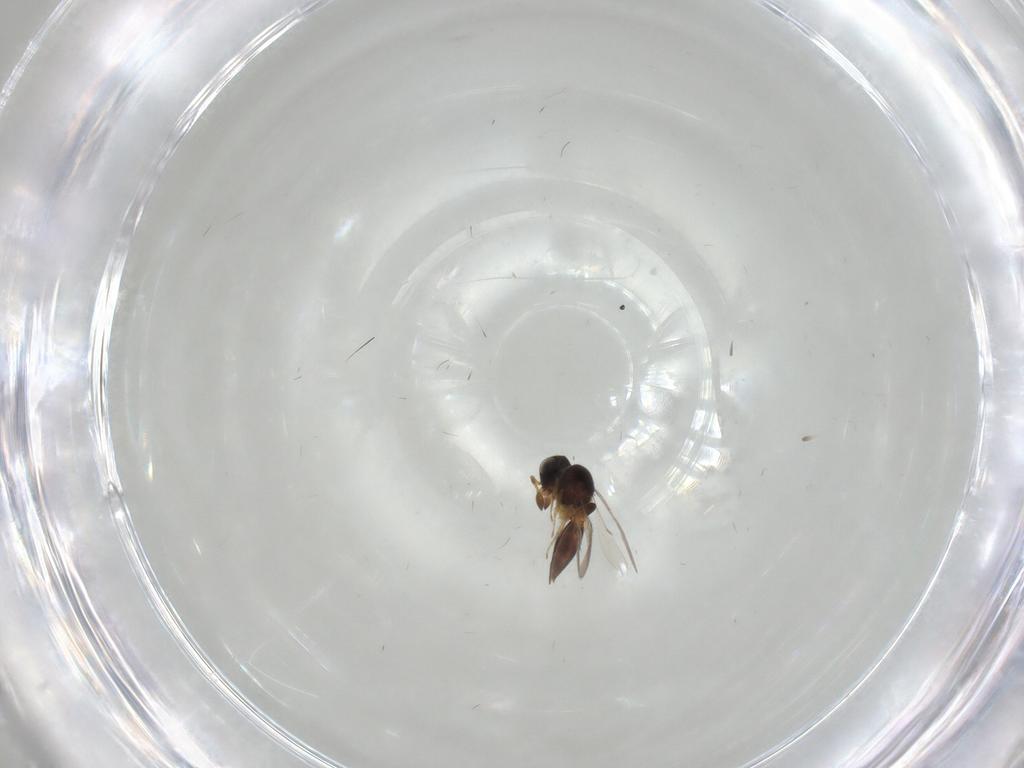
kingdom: Animalia
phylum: Arthropoda
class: Insecta
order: Hymenoptera
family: Scelionidae
